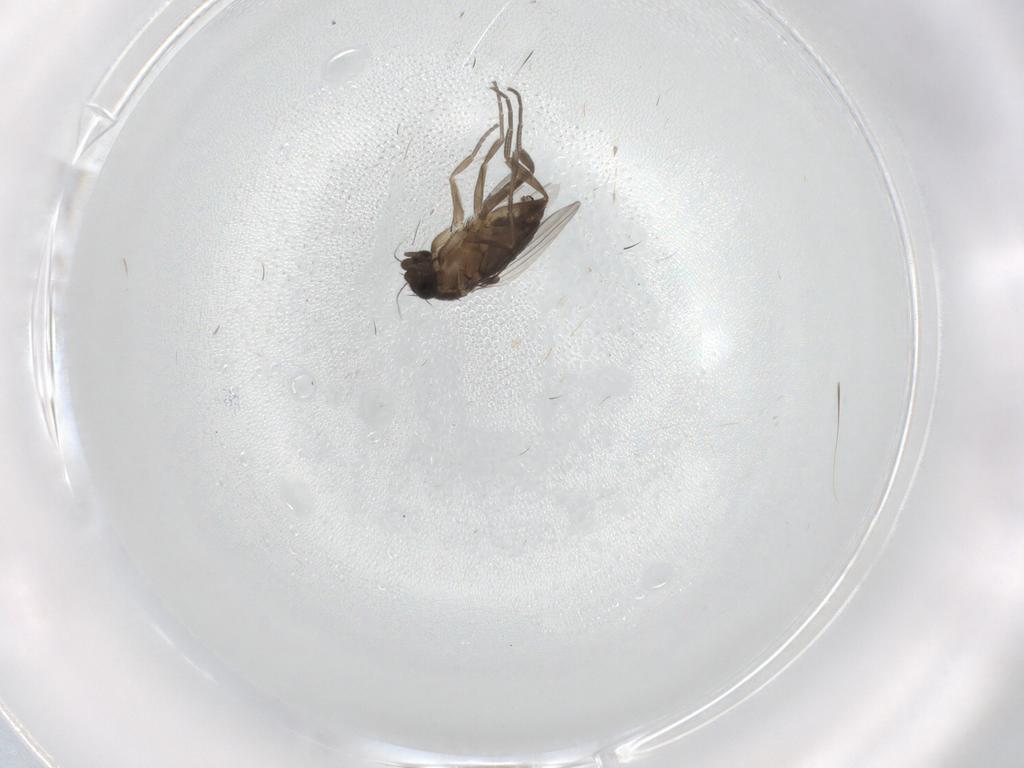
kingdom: Animalia
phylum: Arthropoda
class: Insecta
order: Diptera
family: Phoridae
